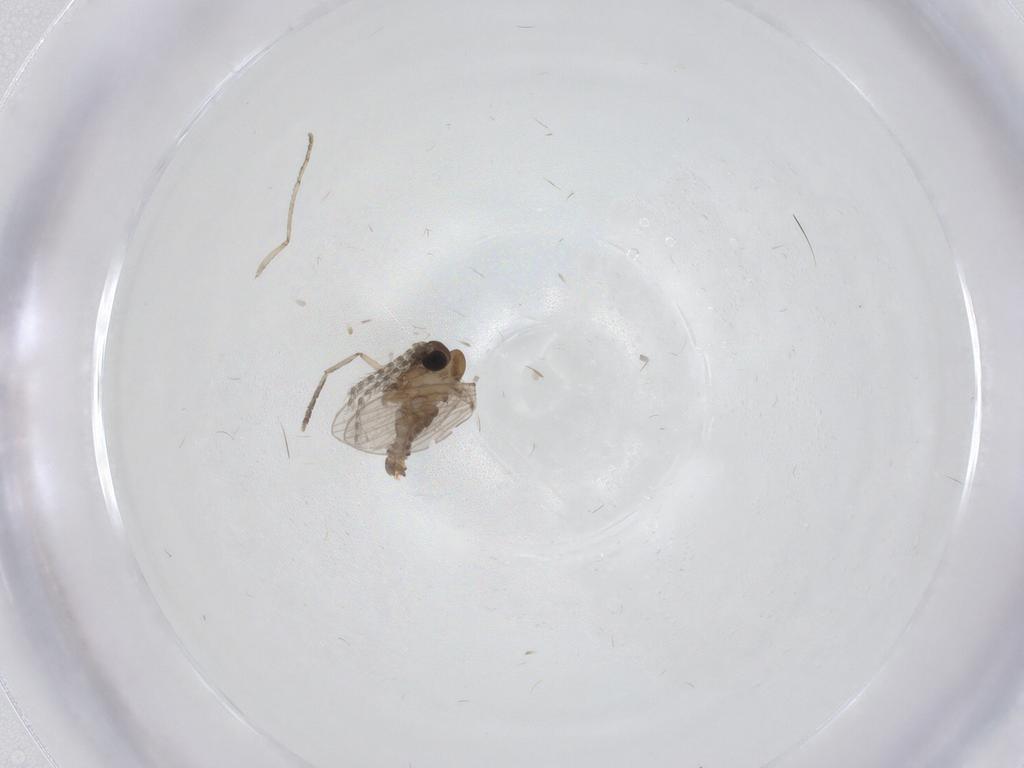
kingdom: Animalia
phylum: Arthropoda
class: Insecta
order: Diptera
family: Psychodidae
